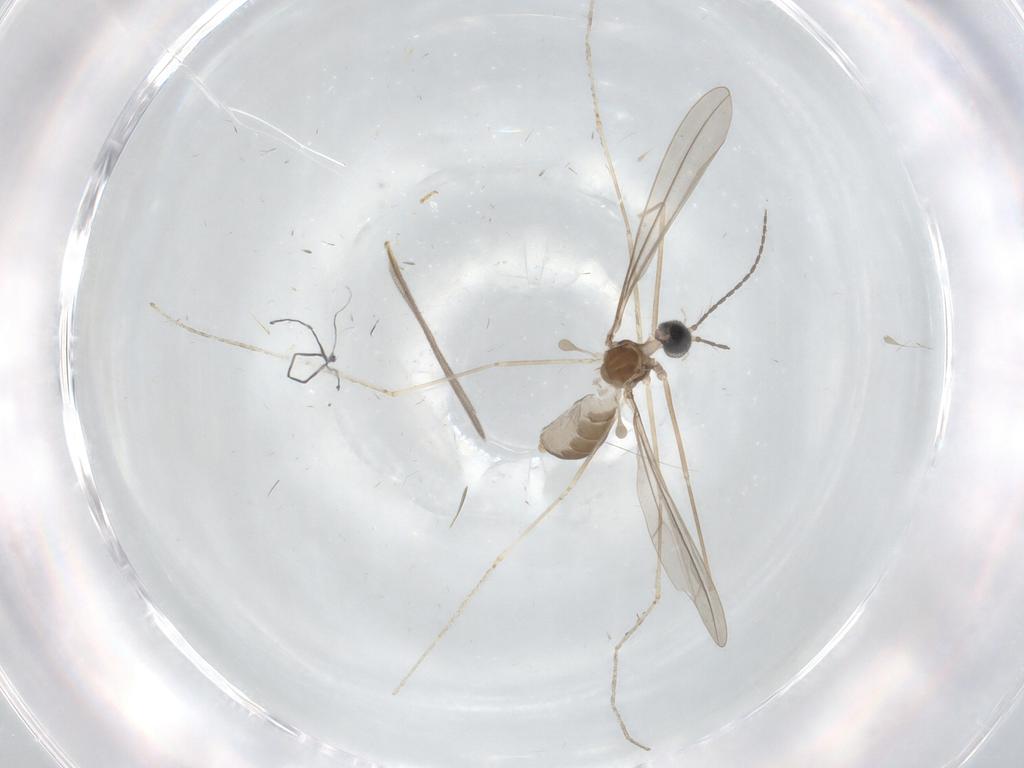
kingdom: Animalia
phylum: Arthropoda
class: Insecta
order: Diptera
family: Cecidomyiidae
